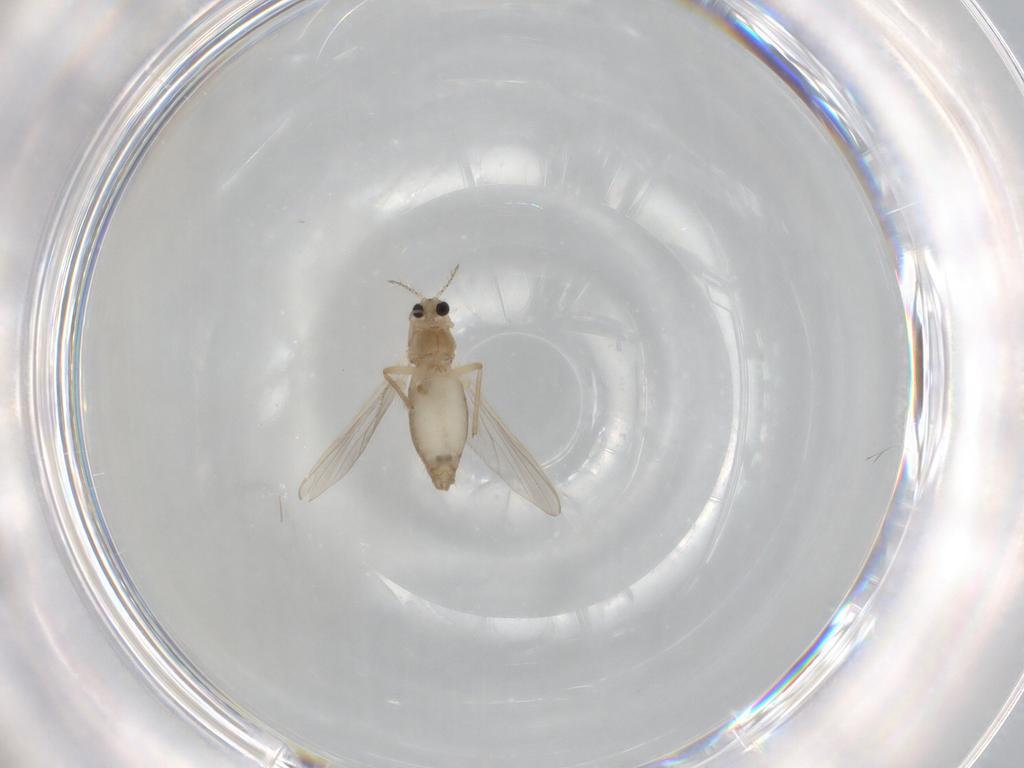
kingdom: Animalia
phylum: Arthropoda
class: Insecta
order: Diptera
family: Chironomidae
